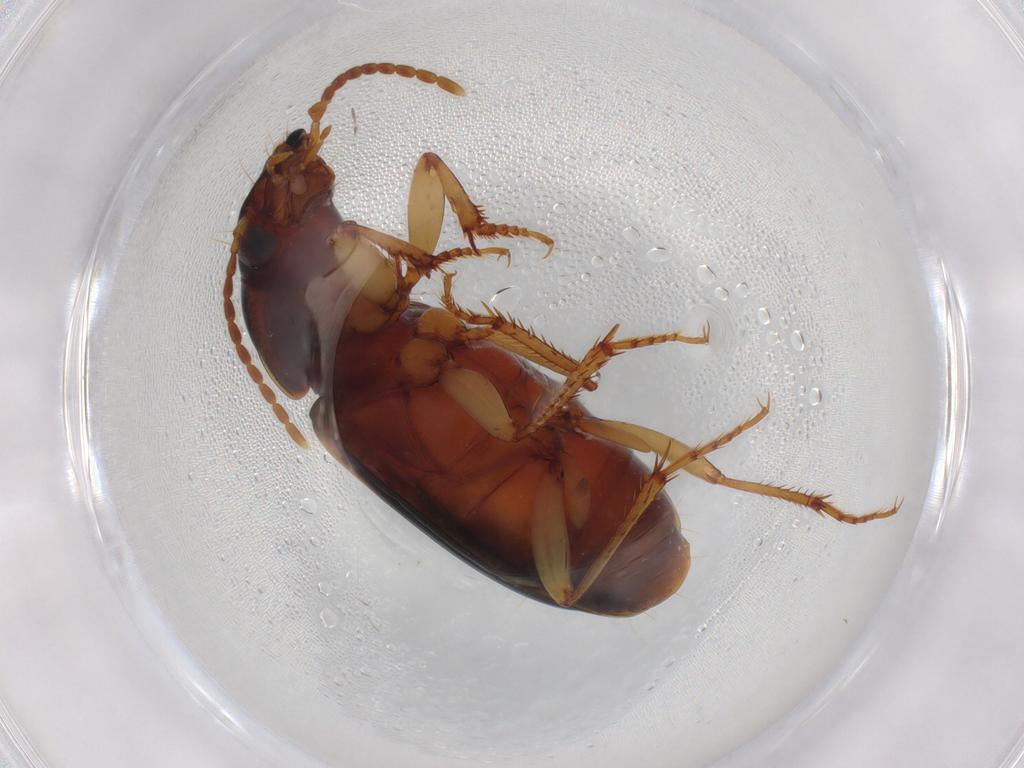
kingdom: Animalia
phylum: Arthropoda
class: Insecta
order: Coleoptera
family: Carabidae
